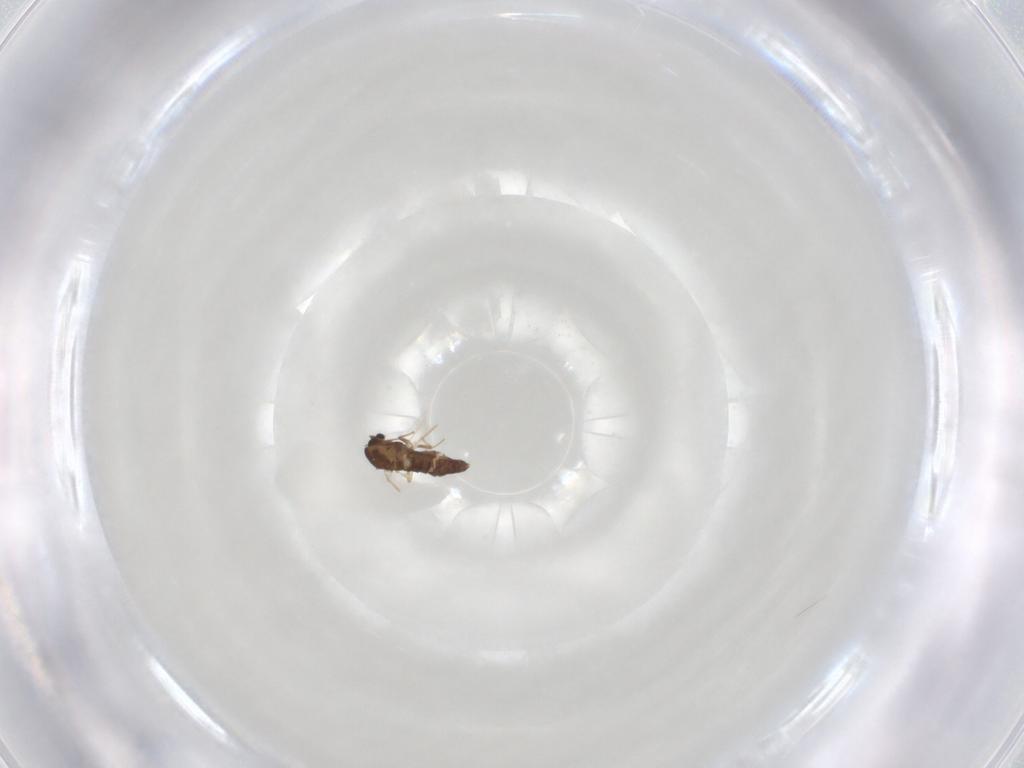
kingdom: Animalia
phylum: Arthropoda
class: Insecta
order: Diptera
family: Chironomidae
